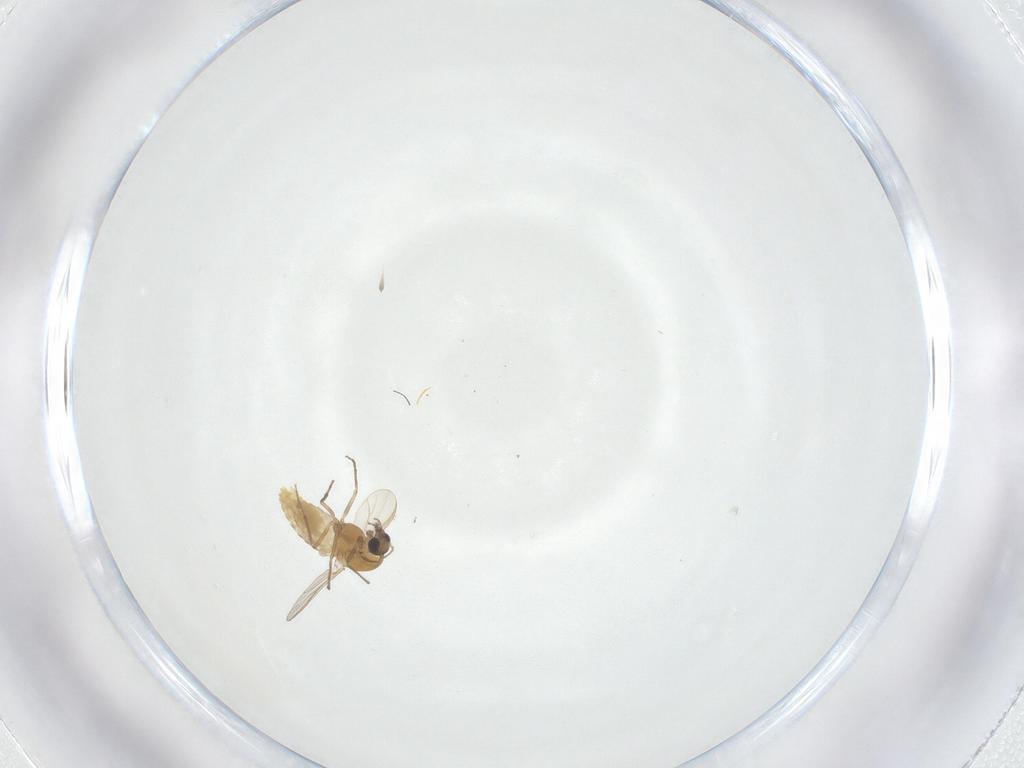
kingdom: Animalia
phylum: Arthropoda
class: Insecta
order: Diptera
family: Chironomidae
